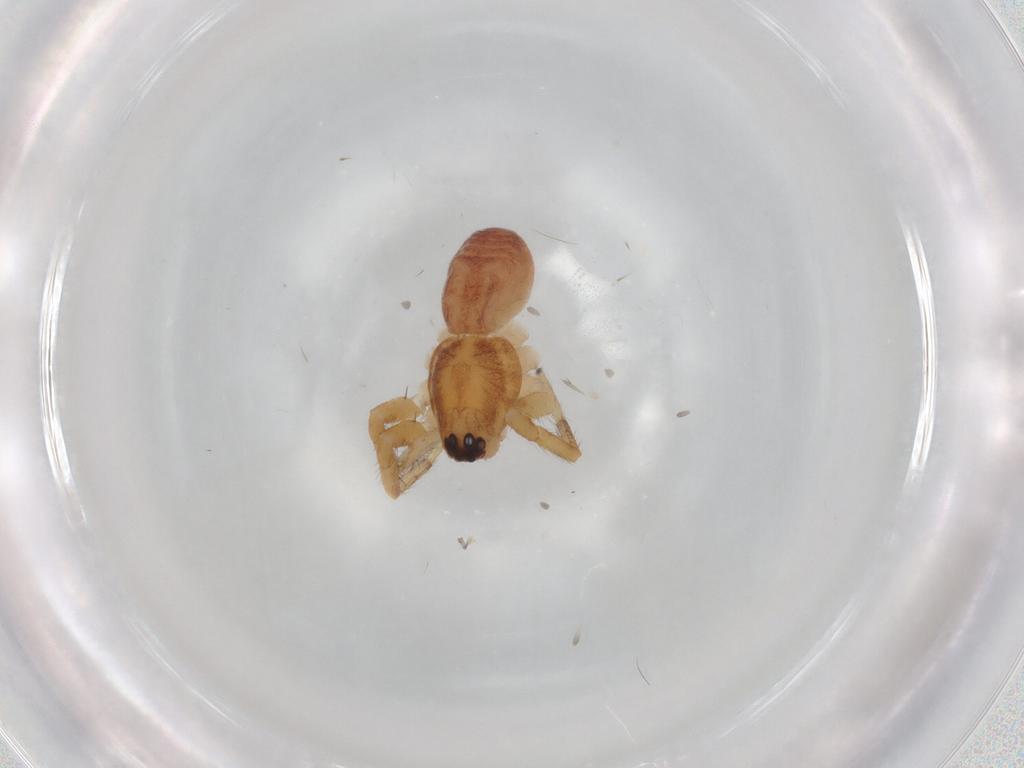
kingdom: Animalia
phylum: Arthropoda
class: Arachnida
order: Araneae
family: Corinnidae
